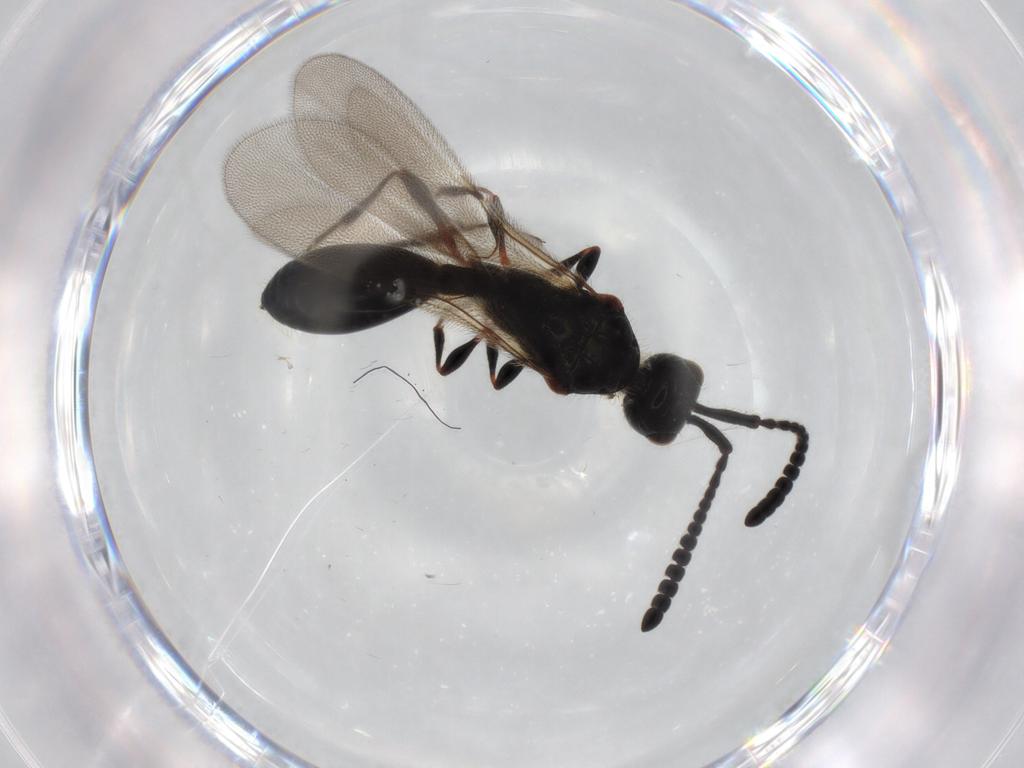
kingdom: Animalia
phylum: Arthropoda
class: Insecta
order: Hymenoptera
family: Diapriidae
